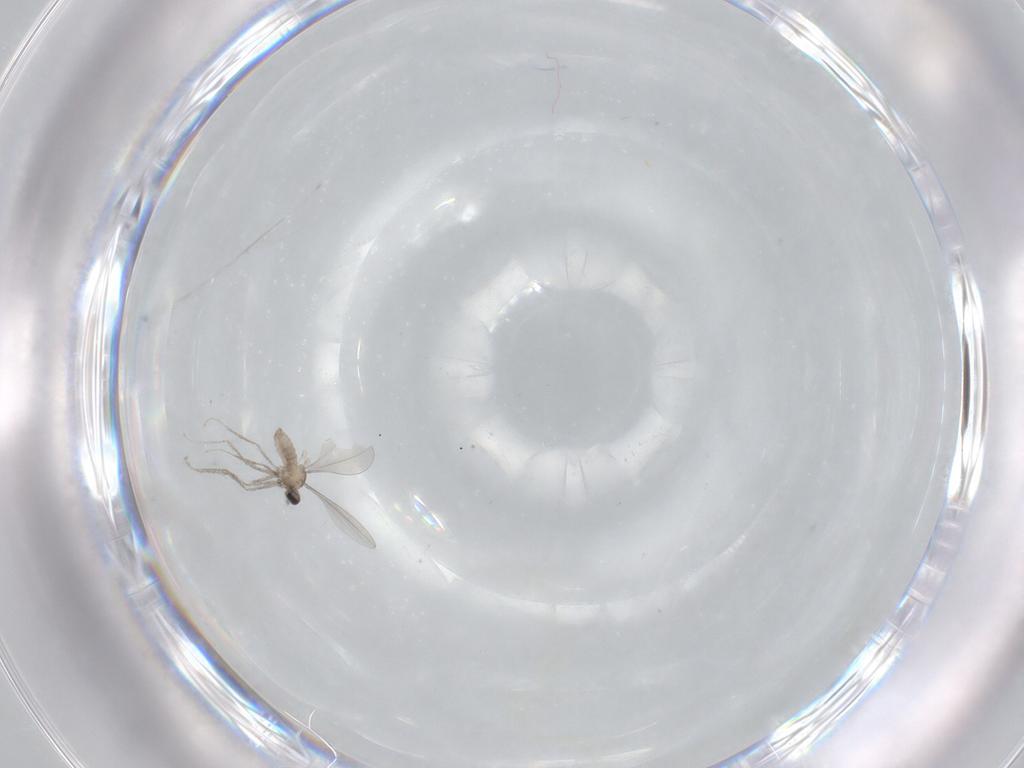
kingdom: Animalia
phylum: Arthropoda
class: Insecta
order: Diptera
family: Cecidomyiidae
